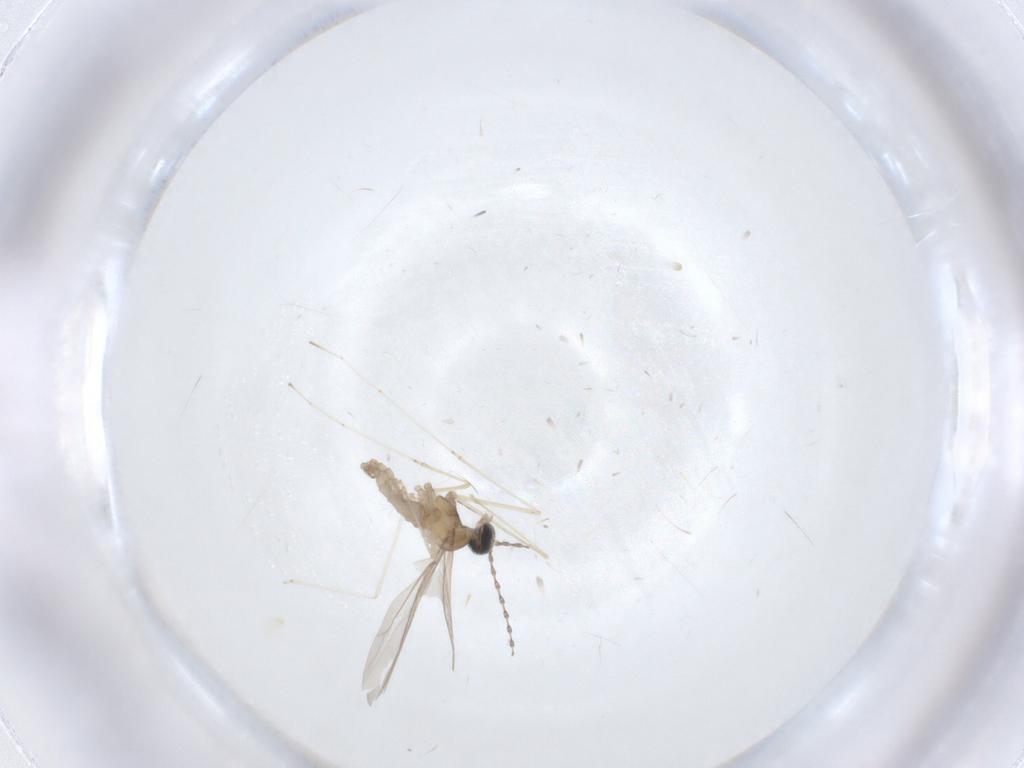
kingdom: Animalia
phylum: Arthropoda
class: Insecta
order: Diptera
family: Cecidomyiidae
